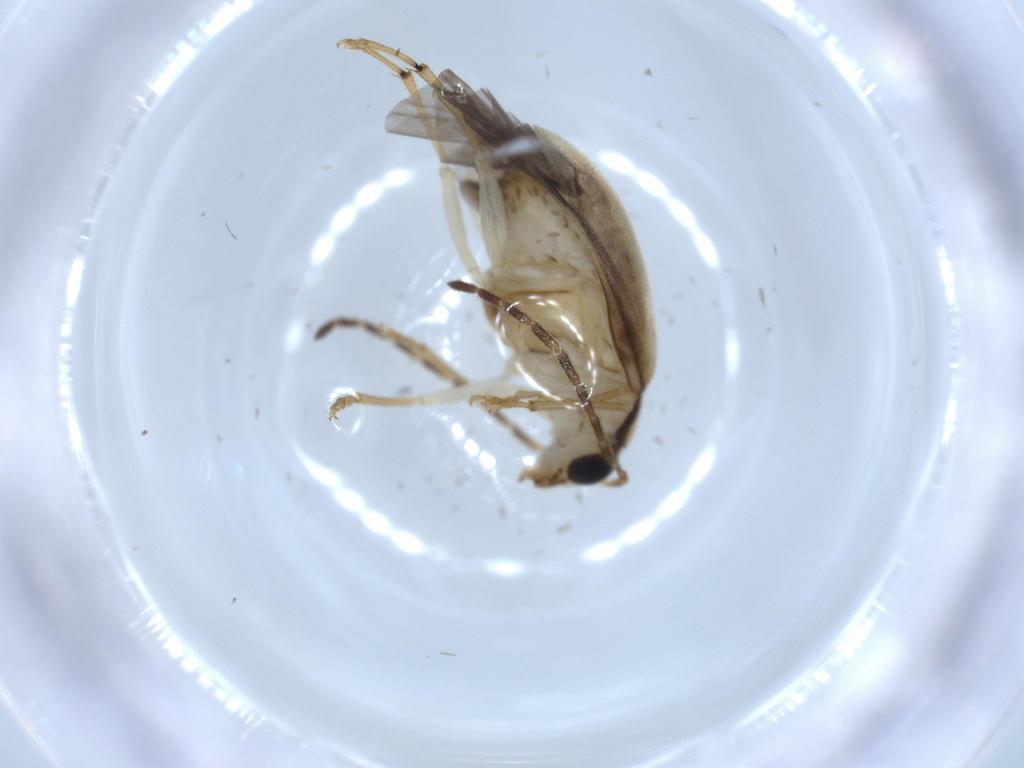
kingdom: Animalia
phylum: Arthropoda
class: Insecta
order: Coleoptera
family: Chrysomelidae
